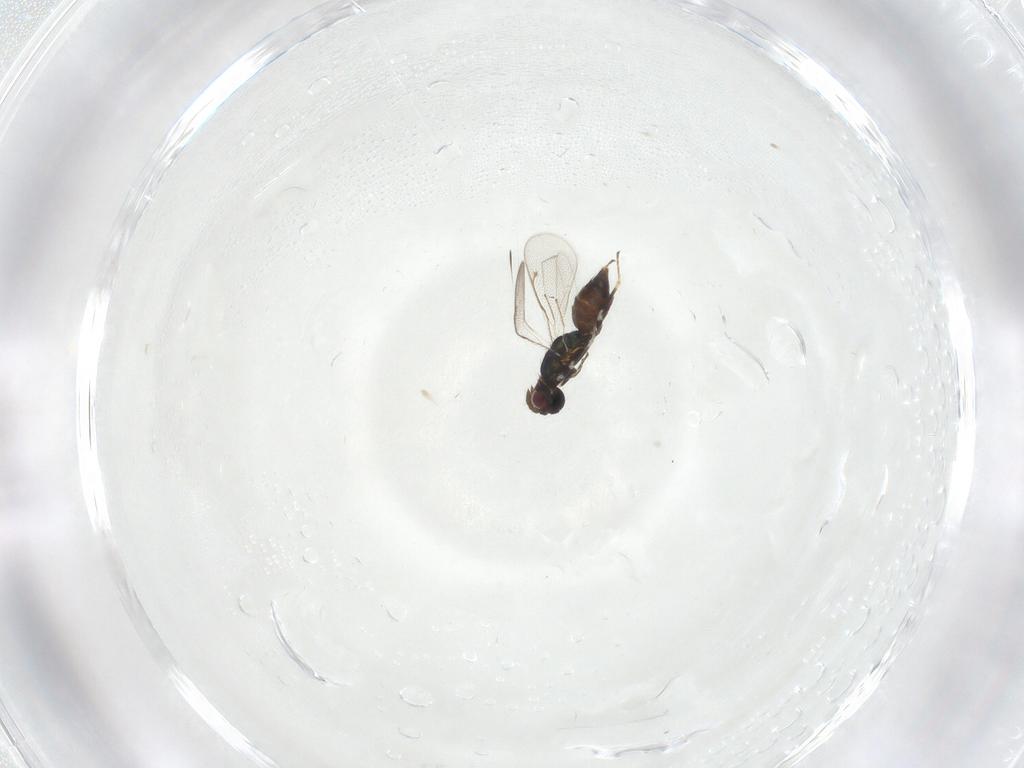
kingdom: Animalia
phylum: Arthropoda
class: Insecta
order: Hymenoptera
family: Eulophidae
